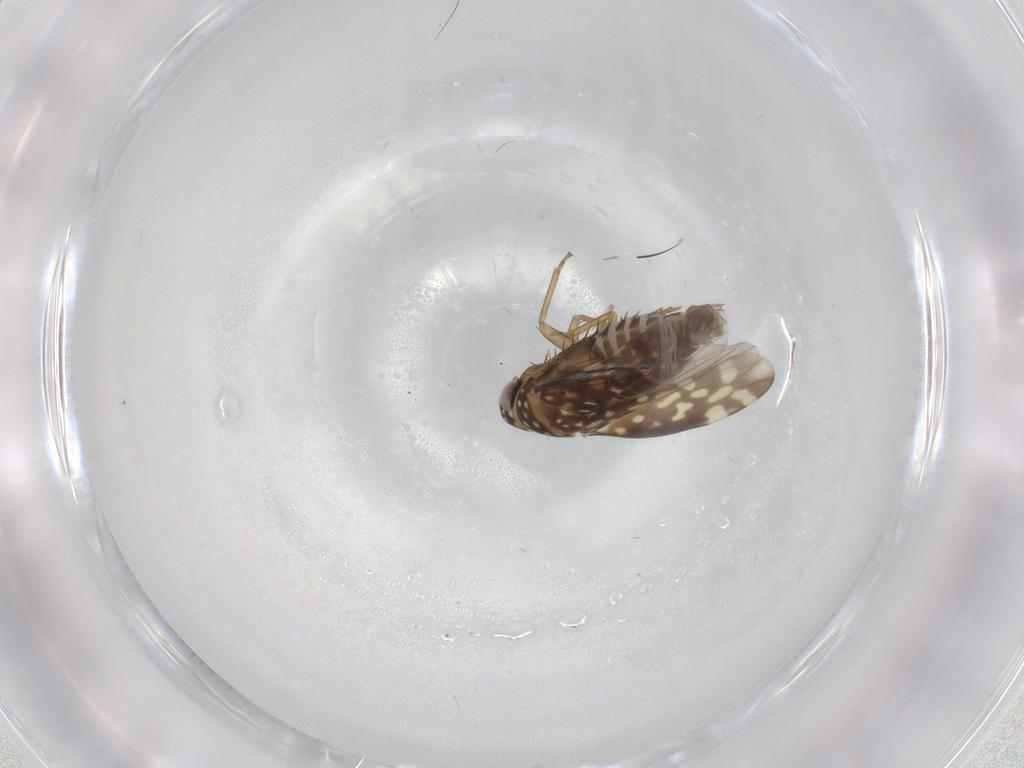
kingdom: Animalia
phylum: Arthropoda
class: Insecta
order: Hemiptera
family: Cicadellidae
